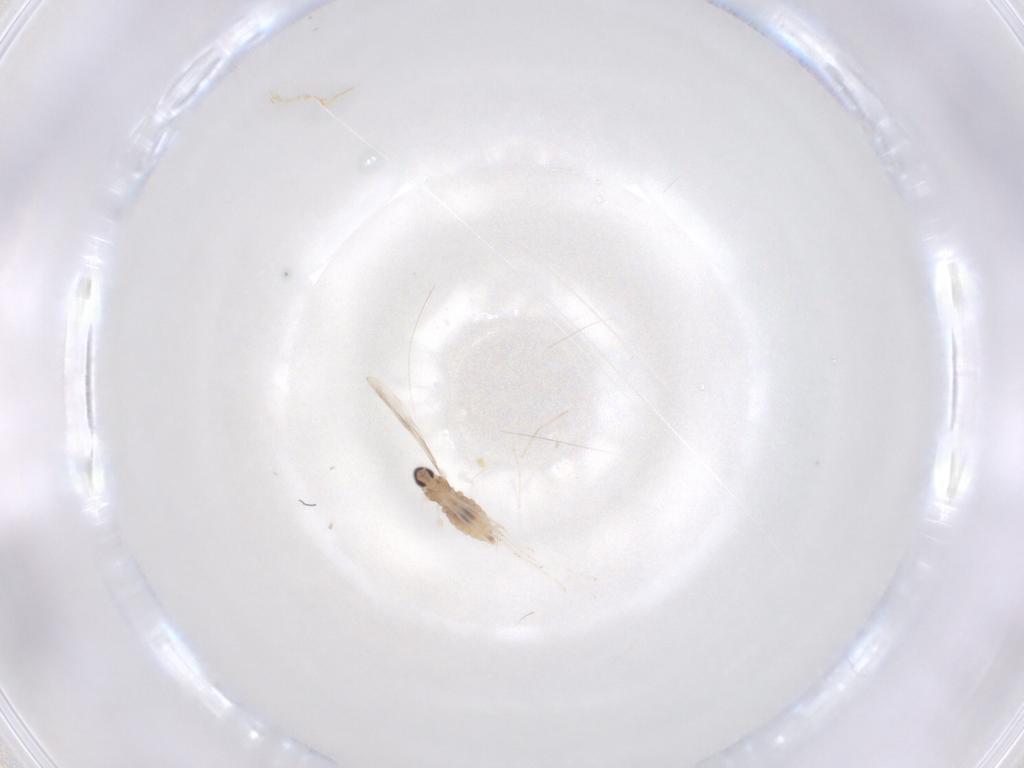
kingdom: Animalia
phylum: Arthropoda
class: Insecta
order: Diptera
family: Cecidomyiidae
